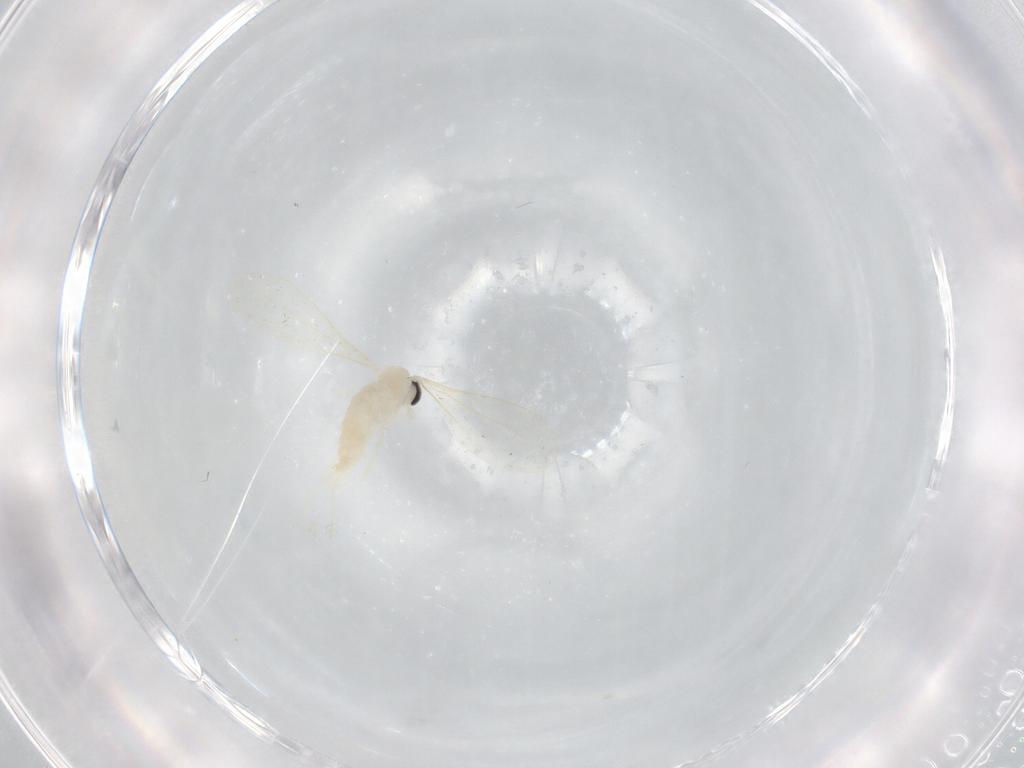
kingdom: Animalia
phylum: Arthropoda
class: Insecta
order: Diptera
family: Cecidomyiidae
